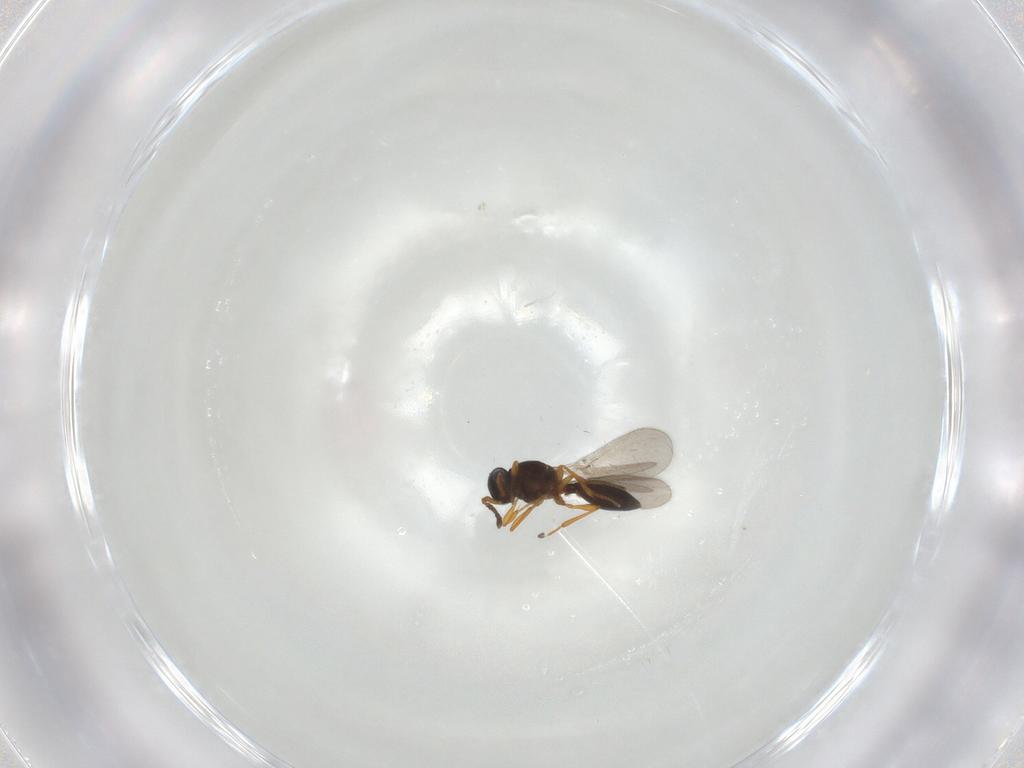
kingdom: Animalia
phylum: Arthropoda
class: Insecta
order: Hymenoptera
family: Platygastridae
